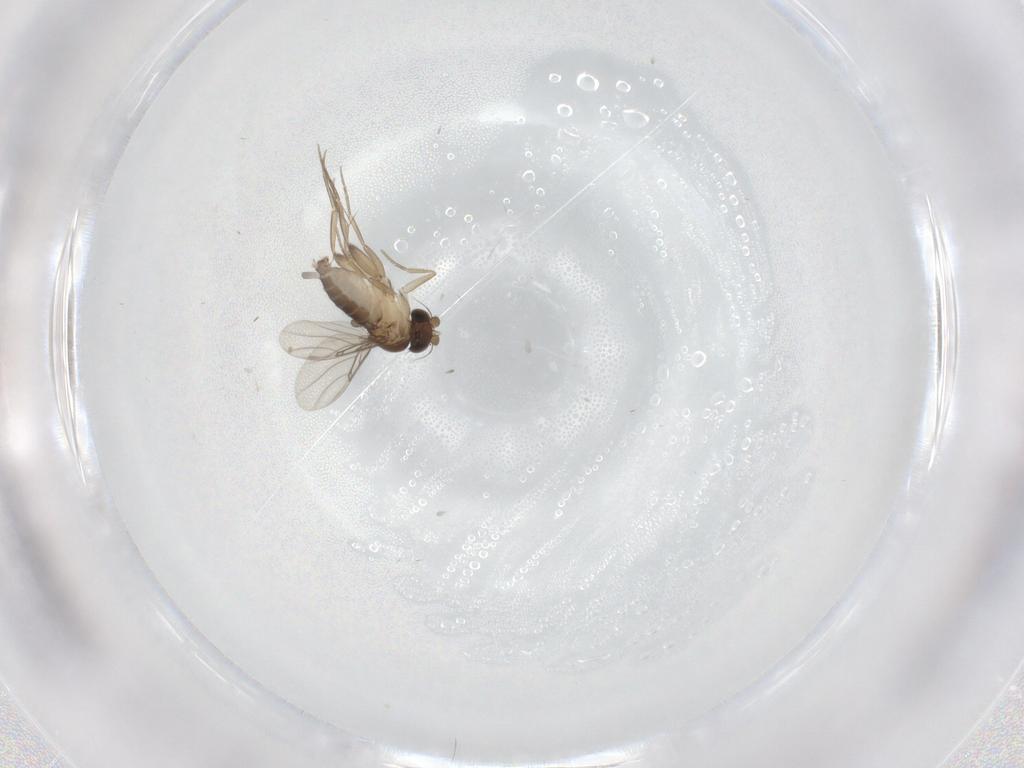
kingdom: Animalia
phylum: Arthropoda
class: Insecta
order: Diptera
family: Phoridae
